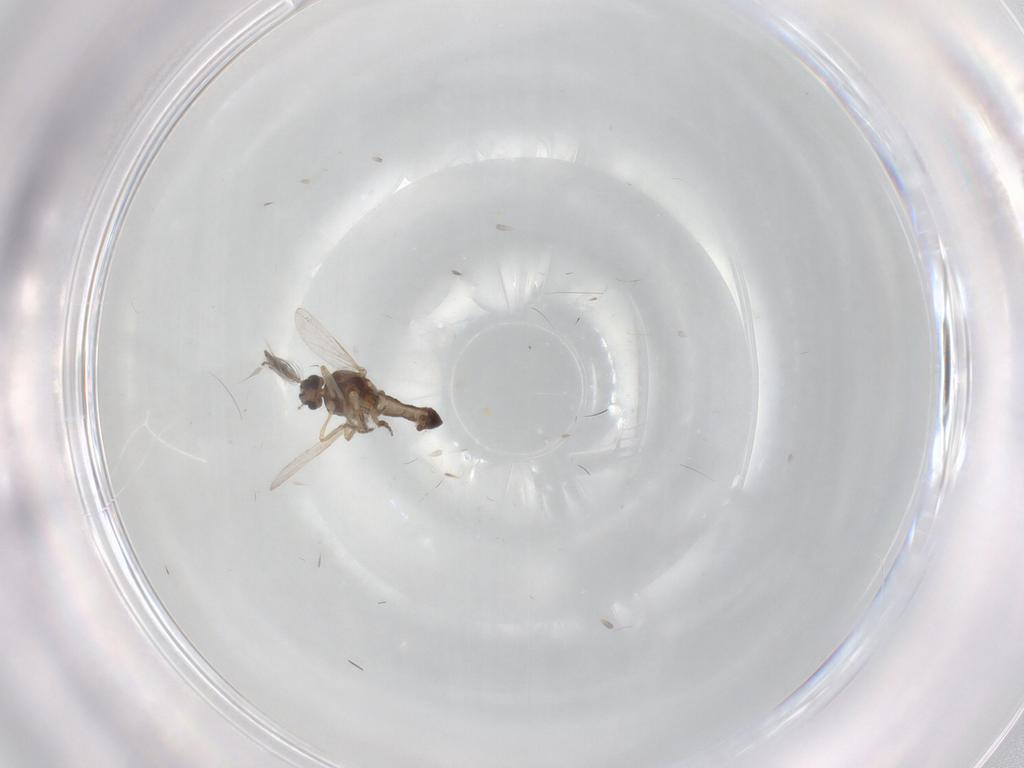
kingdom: Animalia
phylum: Arthropoda
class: Insecta
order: Diptera
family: Ceratopogonidae
